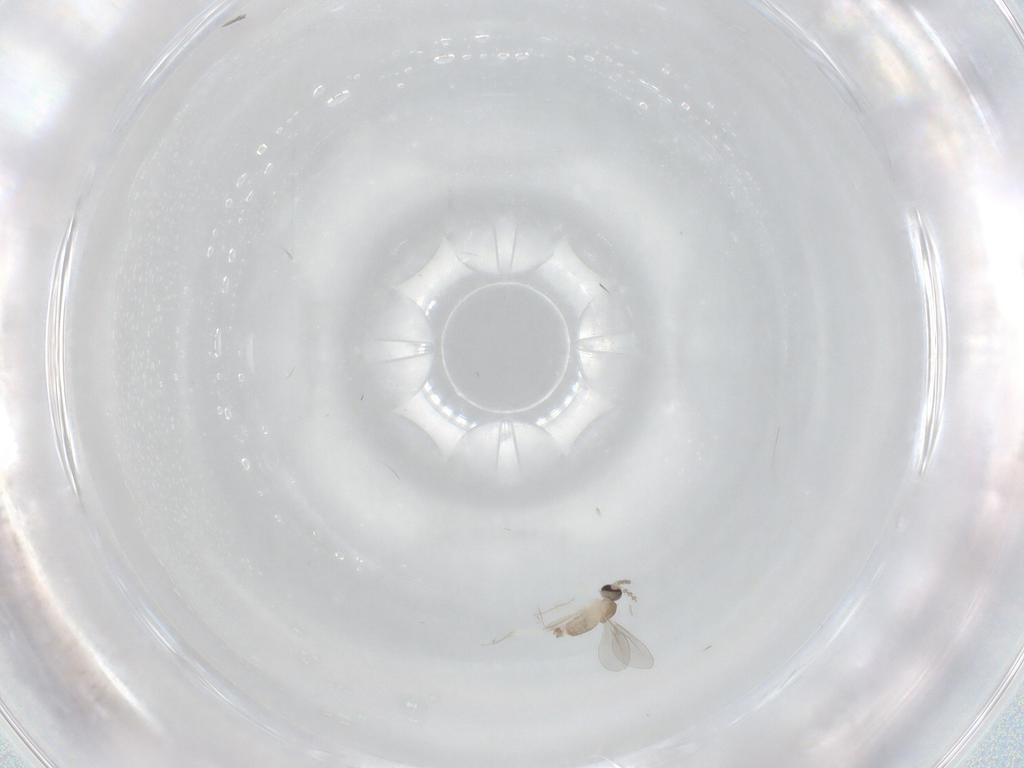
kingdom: Animalia
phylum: Arthropoda
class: Insecta
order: Diptera
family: Cecidomyiidae
